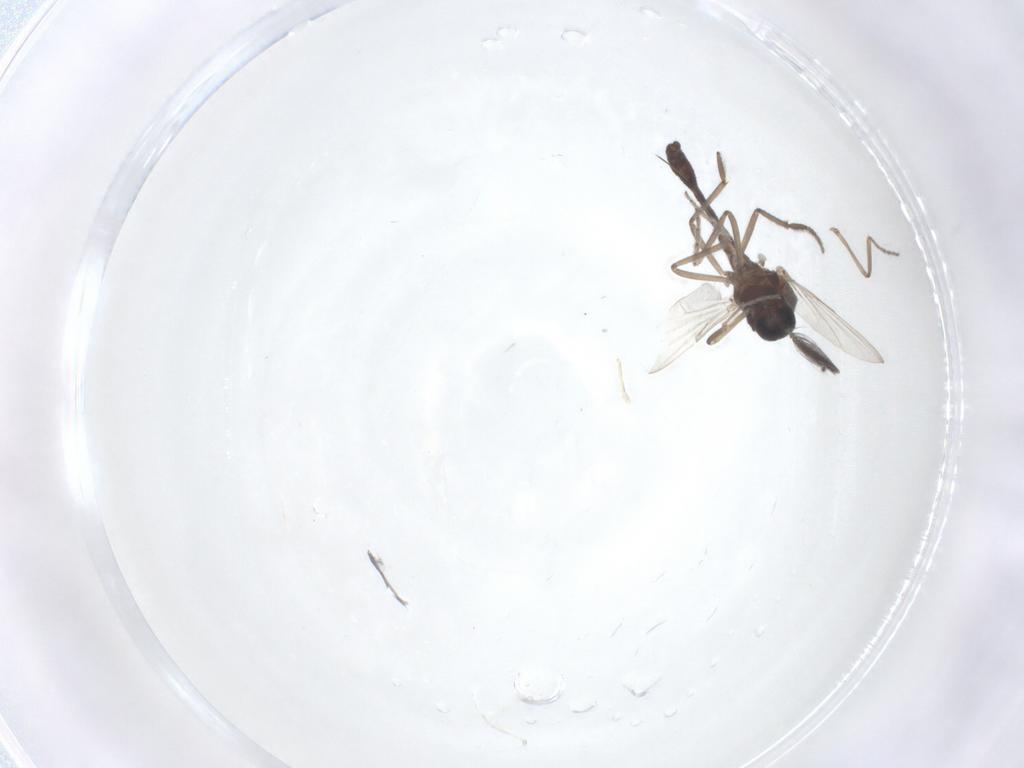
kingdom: Animalia
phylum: Arthropoda
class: Insecta
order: Diptera
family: Ceratopogonidae
